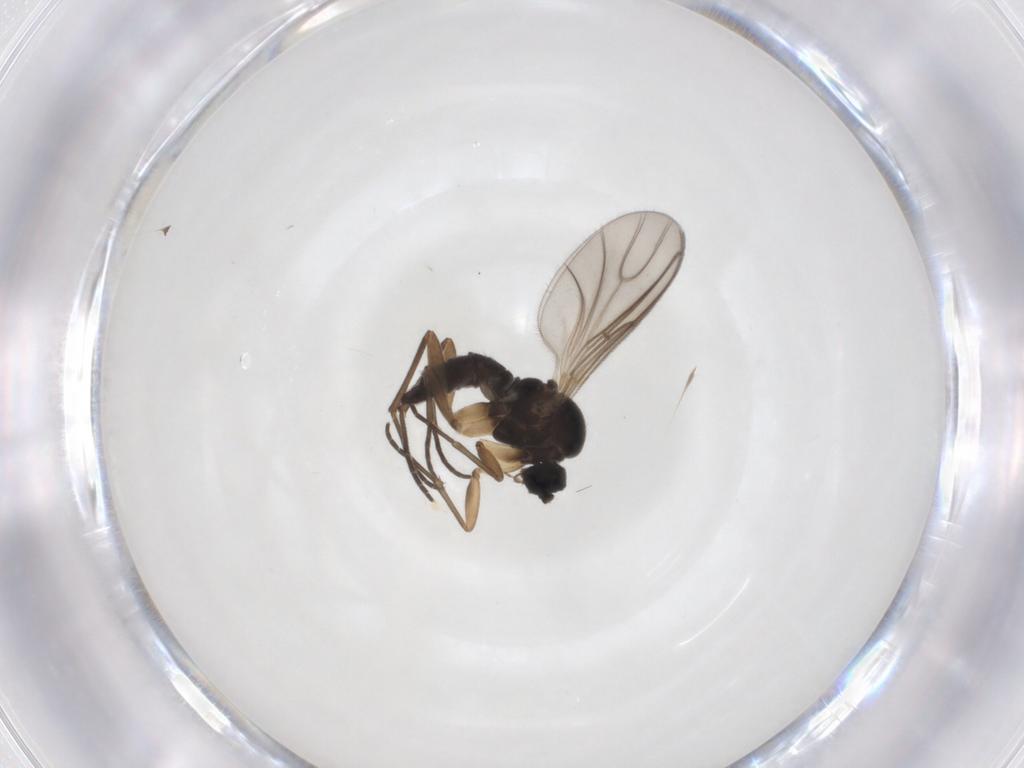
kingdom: Animalia
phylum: Arthropoda
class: Insecta
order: Diptera
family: Sciaridae
